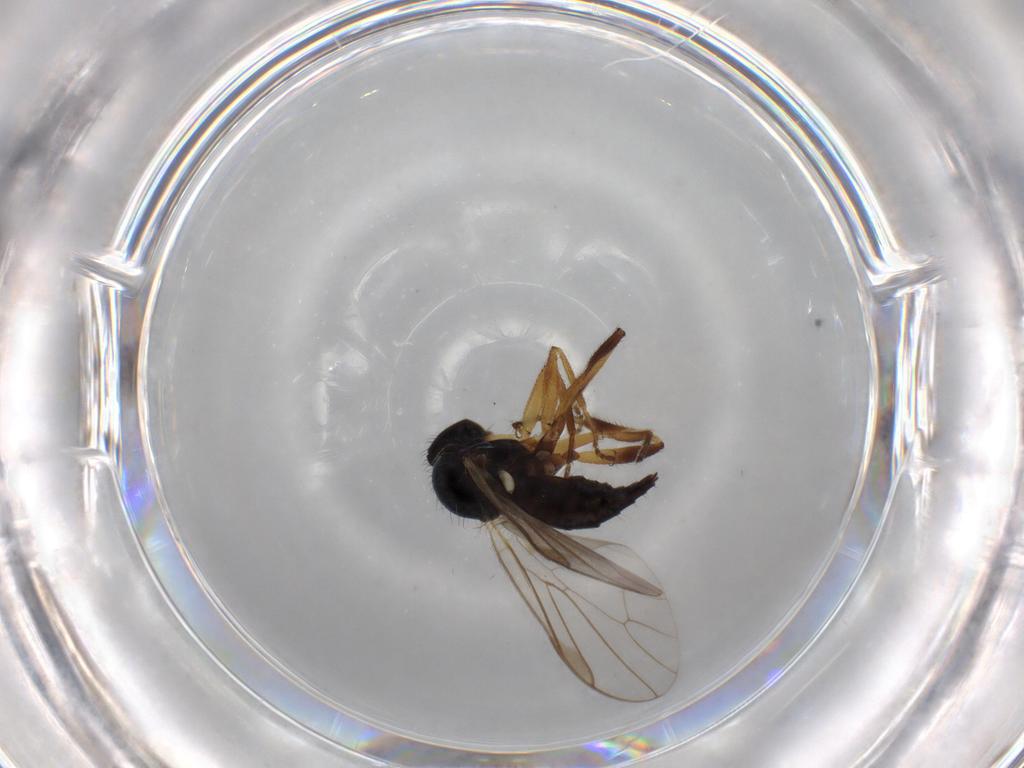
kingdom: Animalia
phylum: Arthropoda
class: Insecta
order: Diptera
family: Hybotidae
